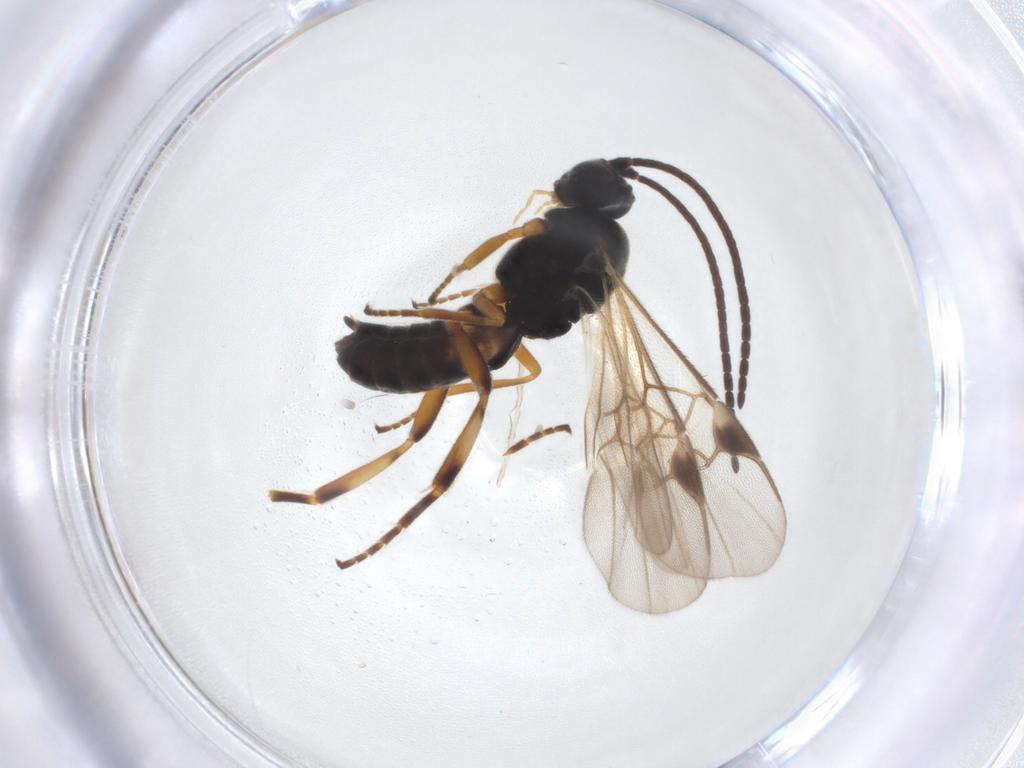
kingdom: Animalia
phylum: Arthropoda
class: Insecta
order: Hymenoptera
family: Braconidae
